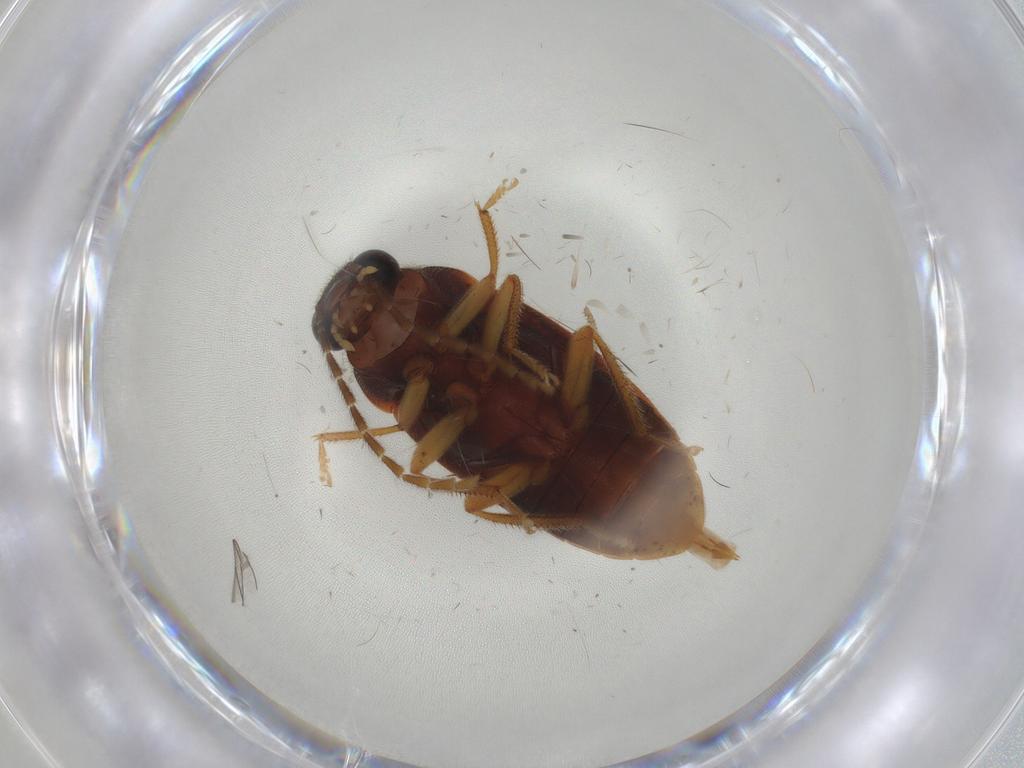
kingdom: Animalia
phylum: Arthropoda
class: Insecta
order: Coleoptera
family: Ptilodactylidae
